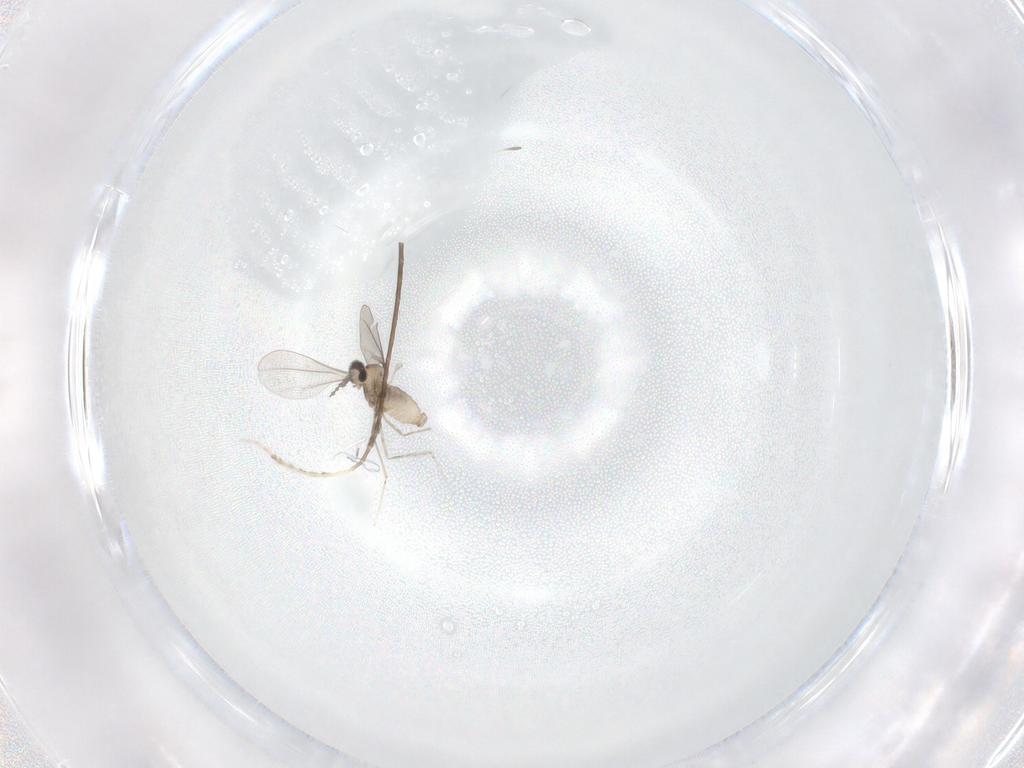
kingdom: Animalia
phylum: Arthropoda
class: Insecta
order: Diptera
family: Cecidomyiidae
